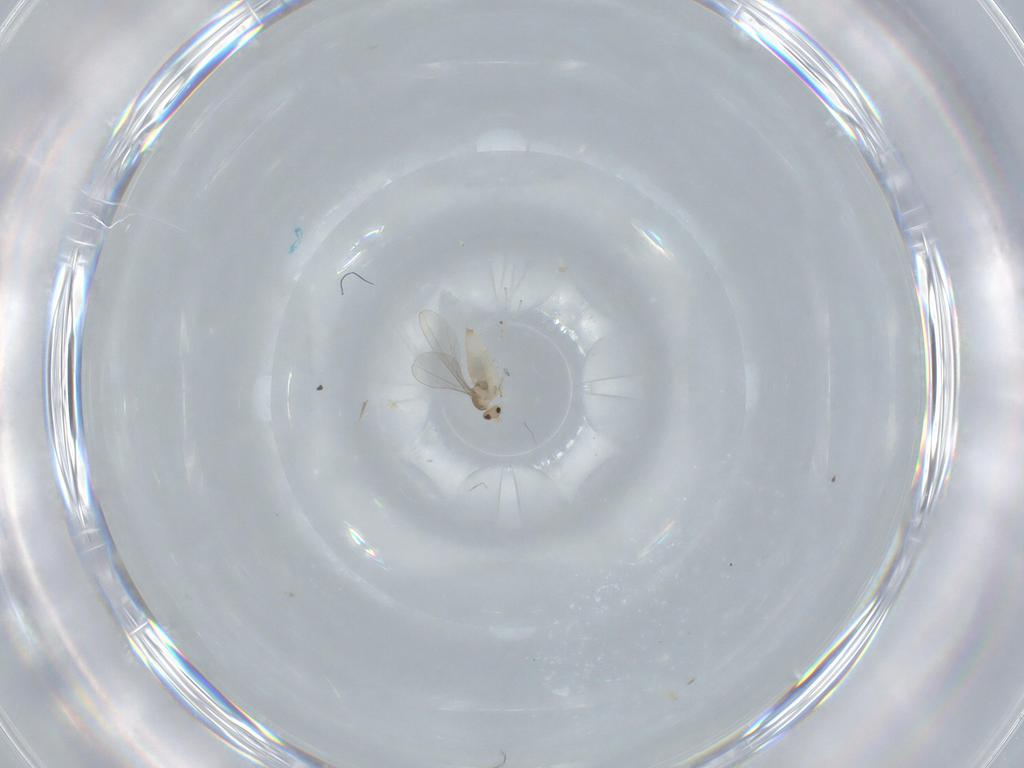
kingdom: Animalia
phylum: Arthropoda
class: Insecta
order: Diptera
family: Cecidomyiidae
